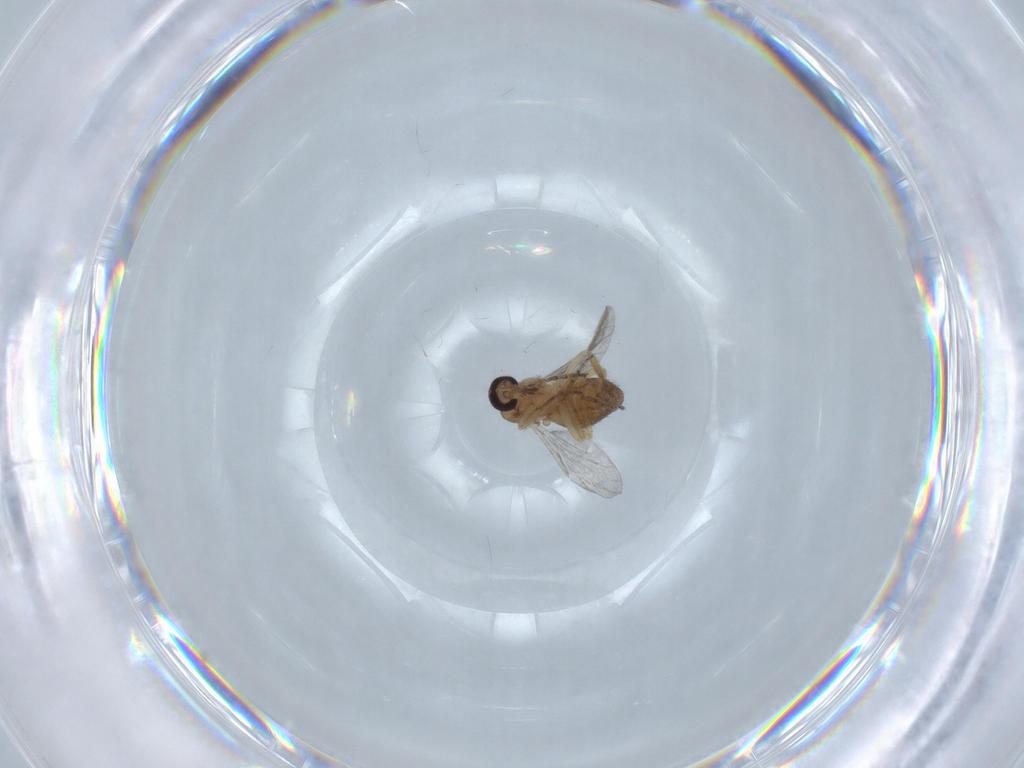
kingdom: Animalia
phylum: Arthropoda
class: Insecta
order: Diptera
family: Ceratopogonidae
